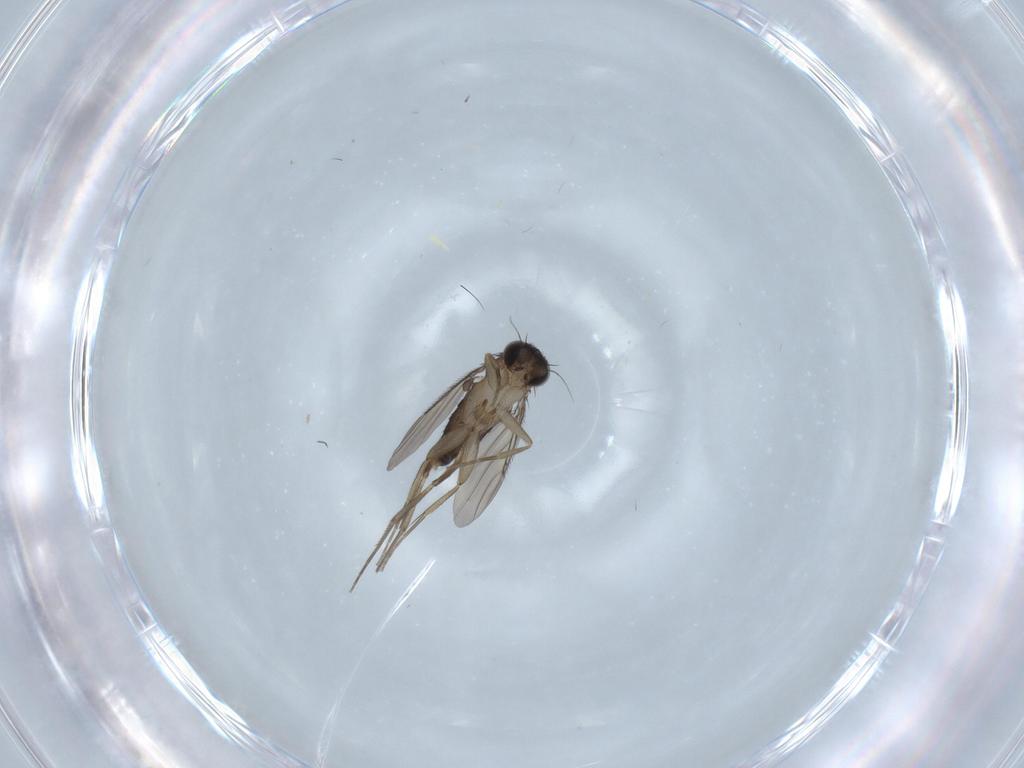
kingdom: Animalia
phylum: Arthropoda
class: Insecta
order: Diptera
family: Phoridae
